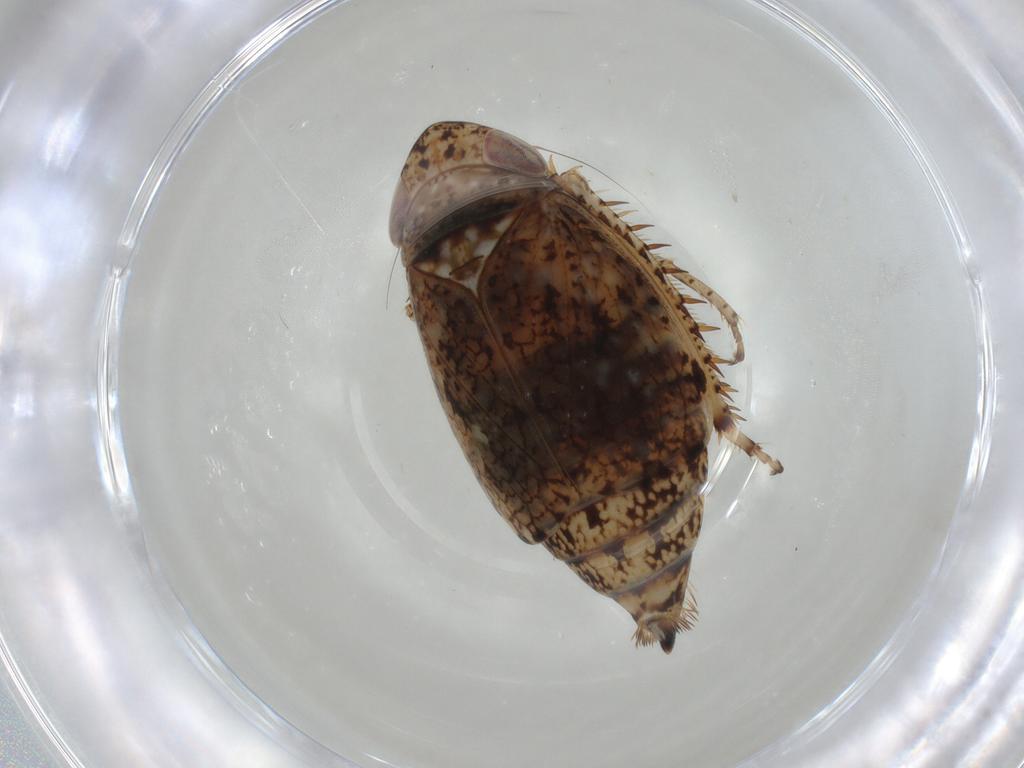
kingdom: Animalia
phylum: Arthropoda
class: Insecta
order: Hemiptera
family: Cicadellidae
